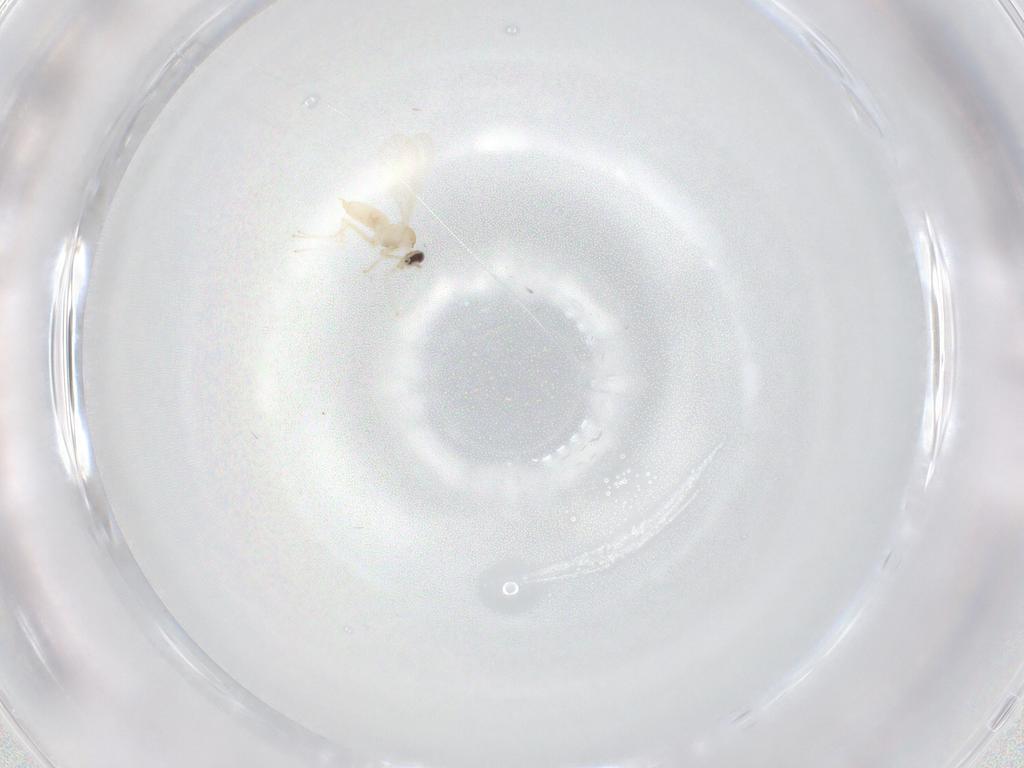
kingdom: Animalia
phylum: Arthropoda
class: Insecta
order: Diptera
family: Cecidomyiidae
